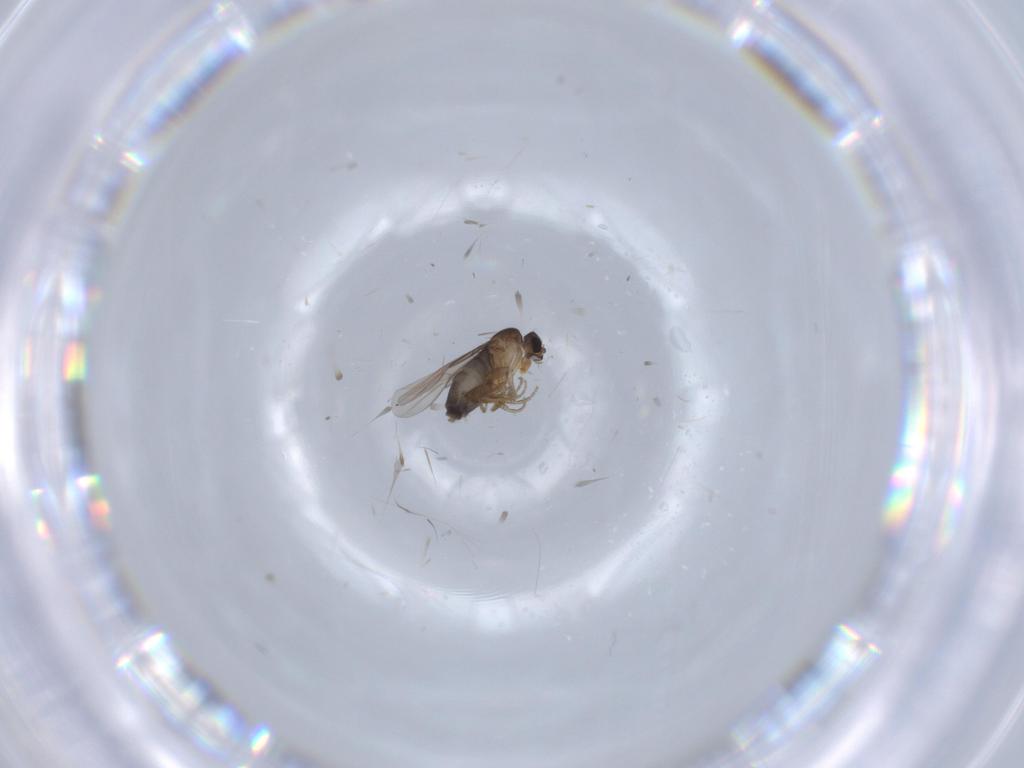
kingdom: Animalia
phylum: Arthropoda
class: Insecta
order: Diptera
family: Phoridae
